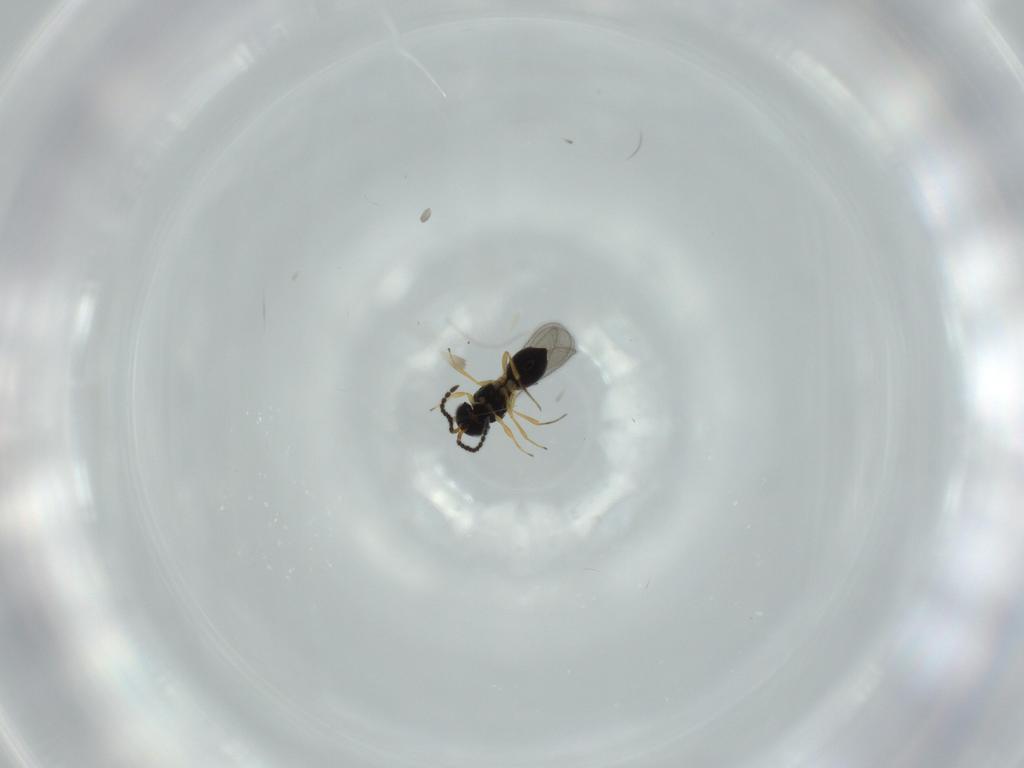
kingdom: Animalia
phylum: Arthropoda
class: Insecta
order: Hymenoptera
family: Scelionidae
